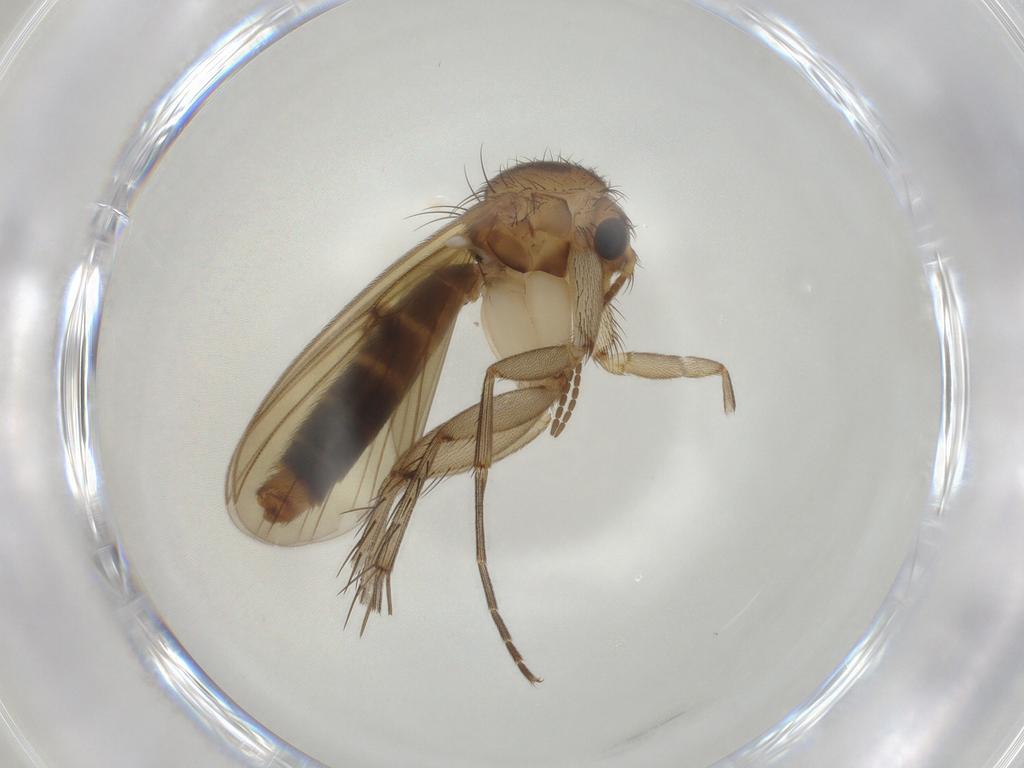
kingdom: Animalia
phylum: Arthropoda
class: Insecta
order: Diptera
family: Mycetophilidae
